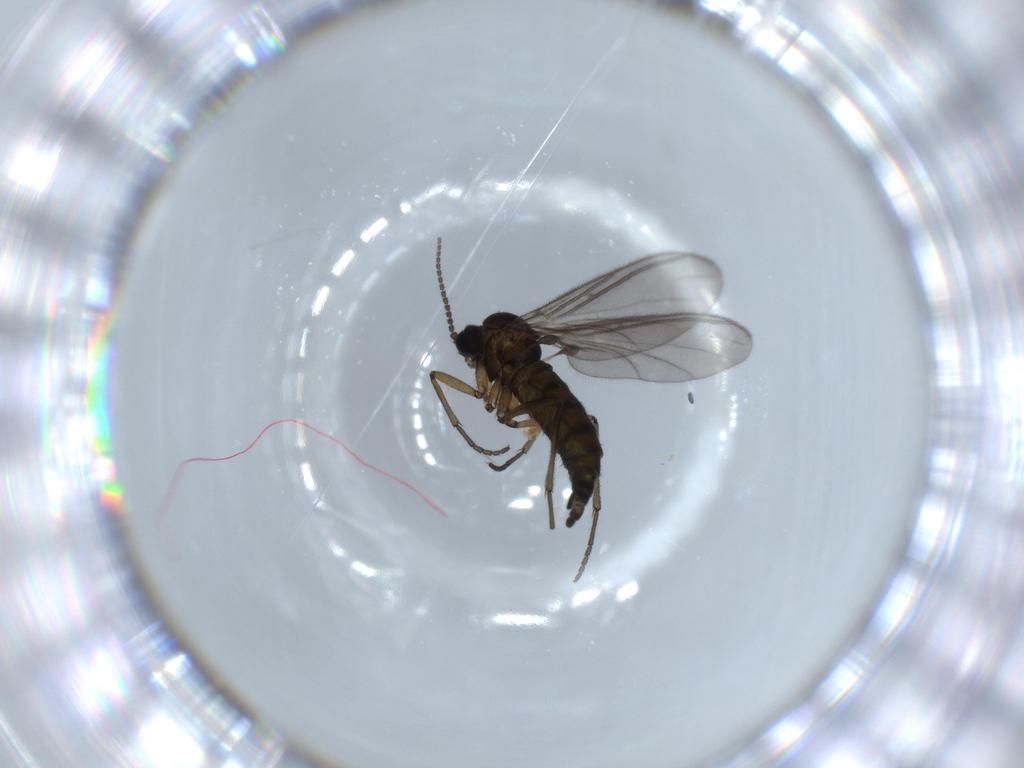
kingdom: Animalia
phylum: Arthropoda
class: Insecta
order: Diptera
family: Sciaridae
